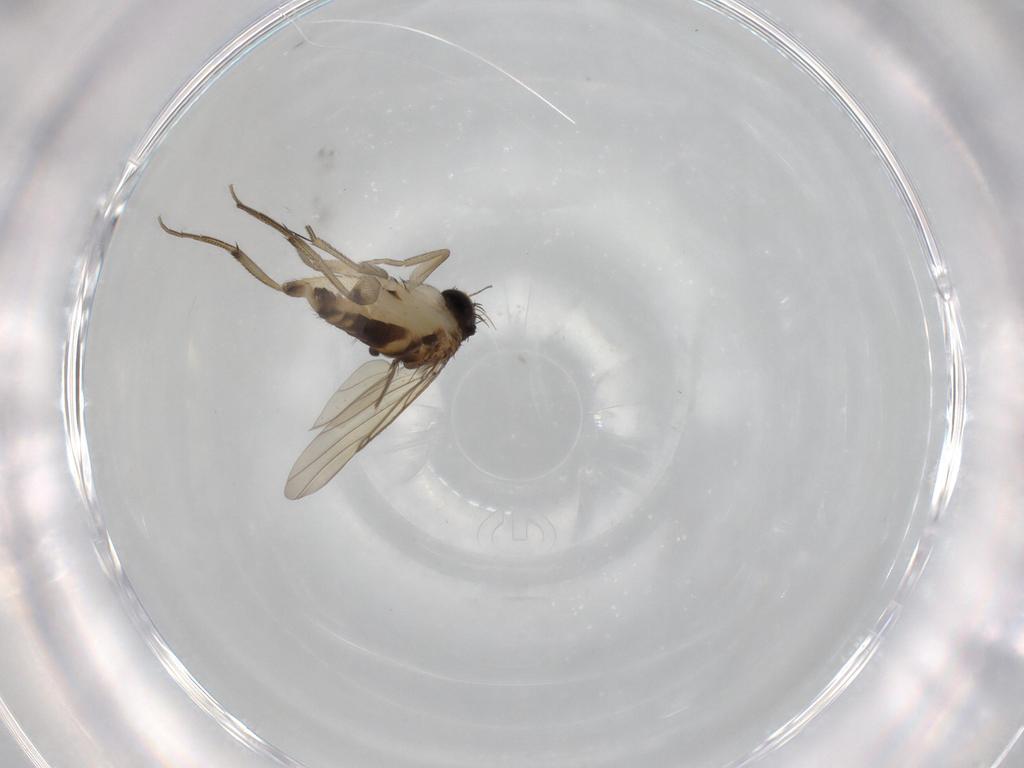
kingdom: Animalia
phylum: Arthropoda
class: Insecta
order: Diptera
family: Phoridae
